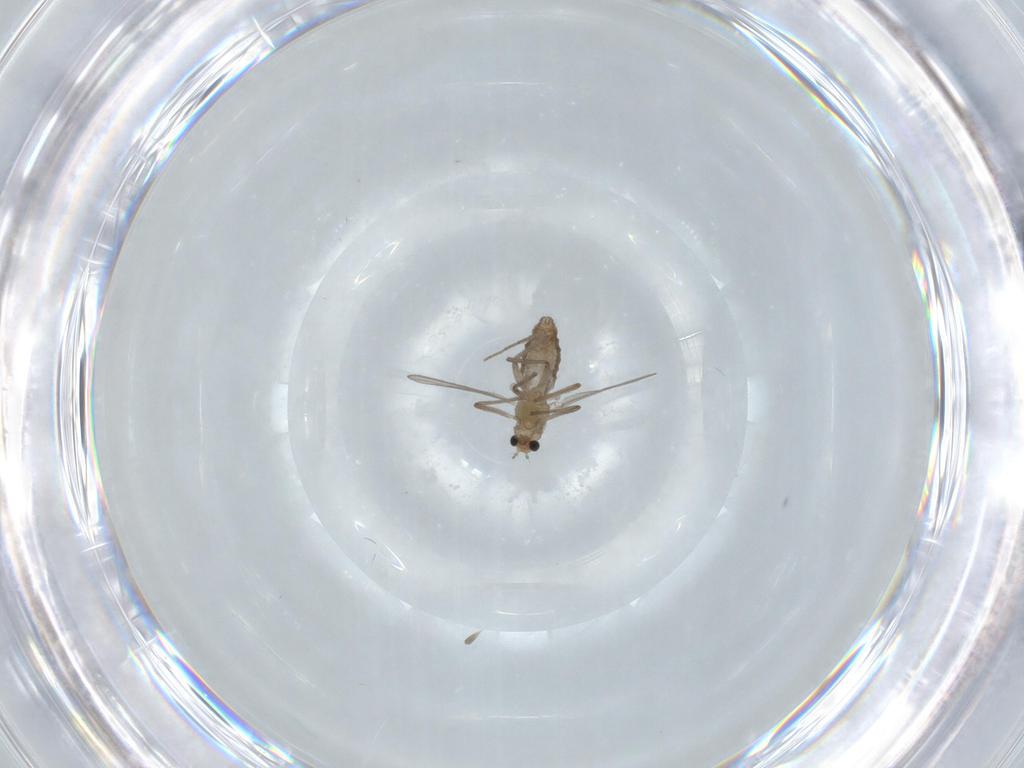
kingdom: Animalia
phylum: Arthropoda
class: Insecta
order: Diptera
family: Chironomidae
